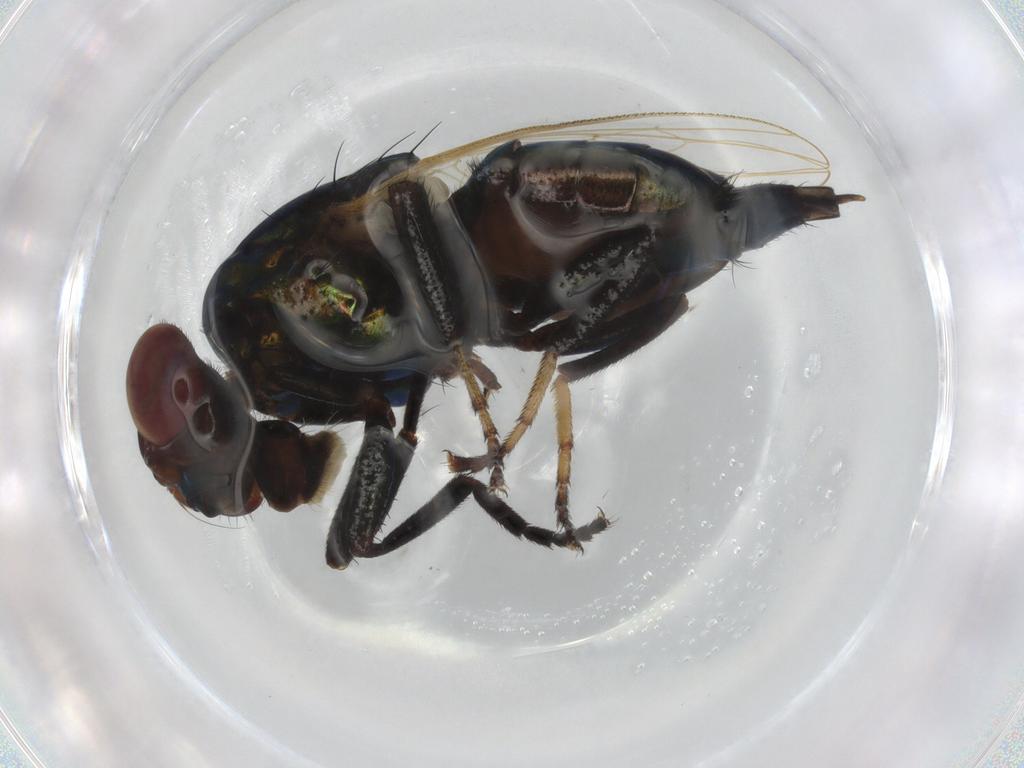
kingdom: Animalia
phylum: Arthropoda
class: Insecta
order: Diptera
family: Ulidiidae
